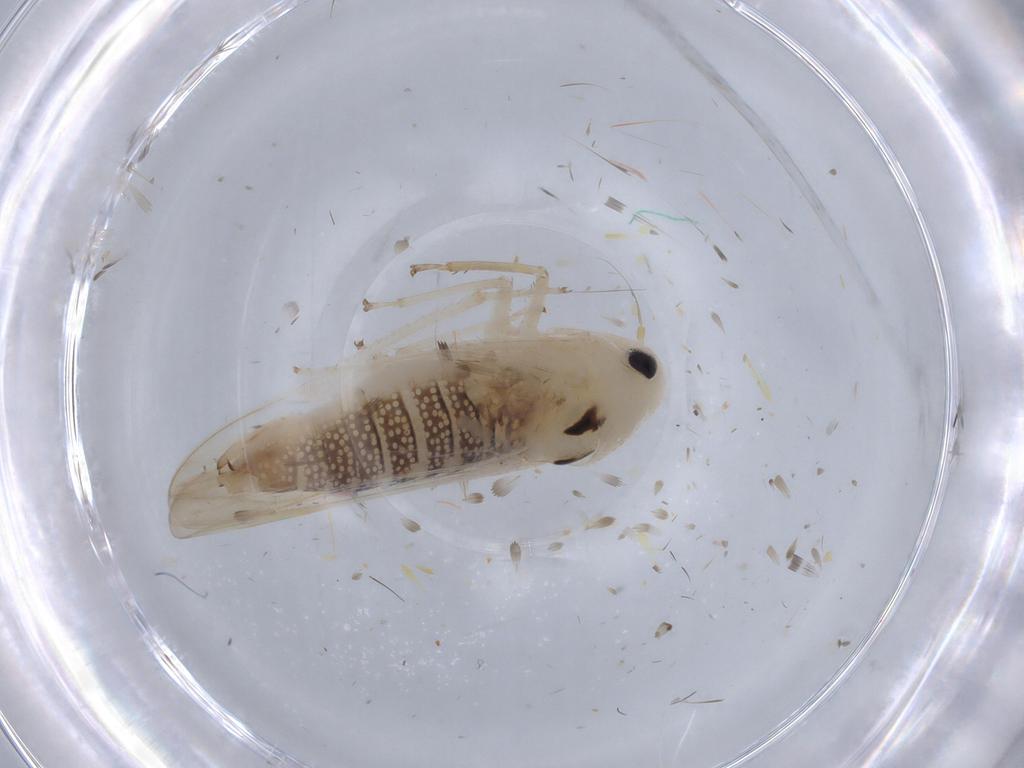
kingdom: Animalia
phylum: Arthropoda
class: Insecta
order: Hemiptera
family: Cicadellidae
